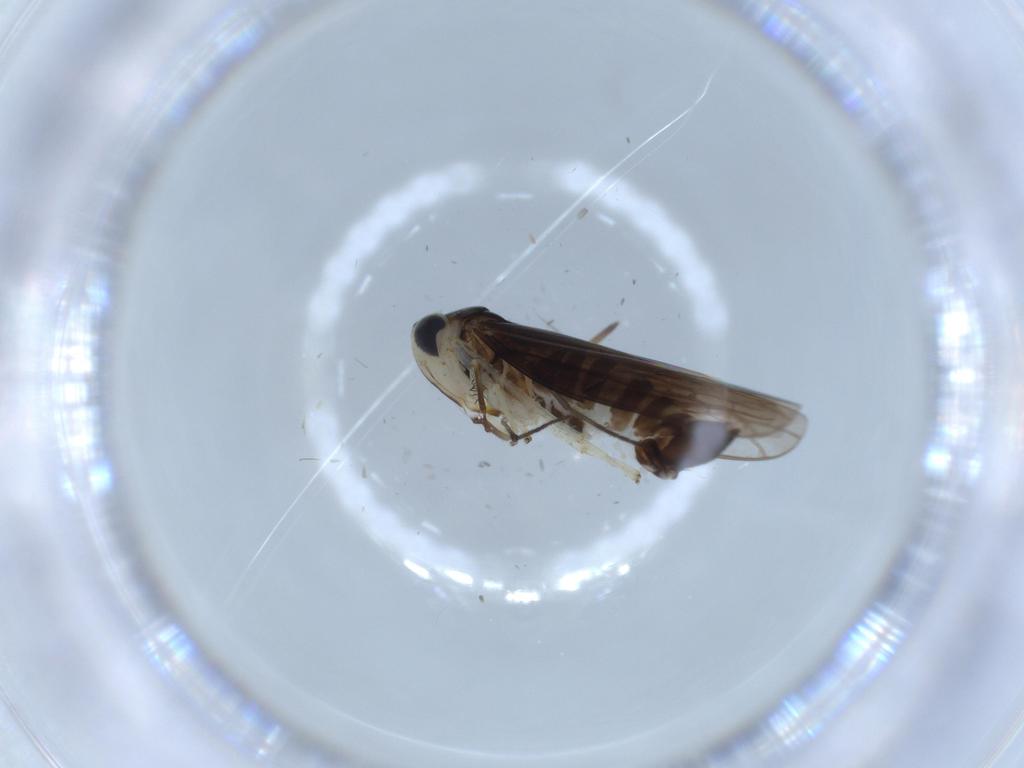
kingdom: Animalia
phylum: Arthropoda
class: Insecta
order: Hemiptera
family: Cicadellidae
